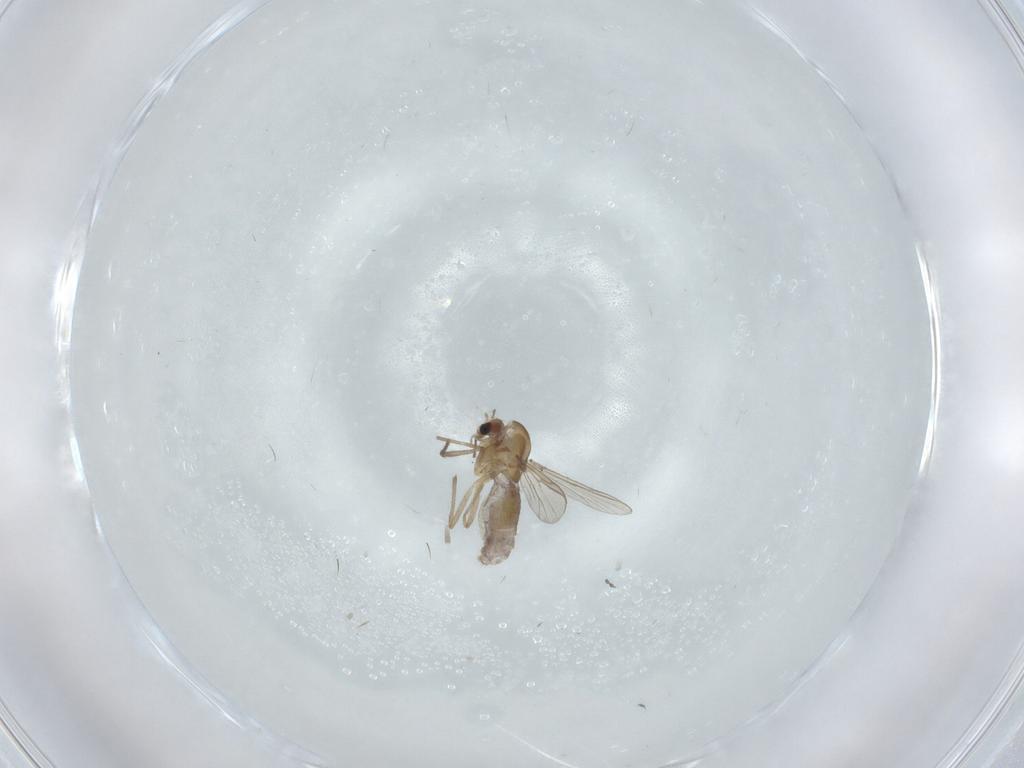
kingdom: Animalia
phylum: Arthropoda
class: Insecta
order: Diptera
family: Chironomidae
